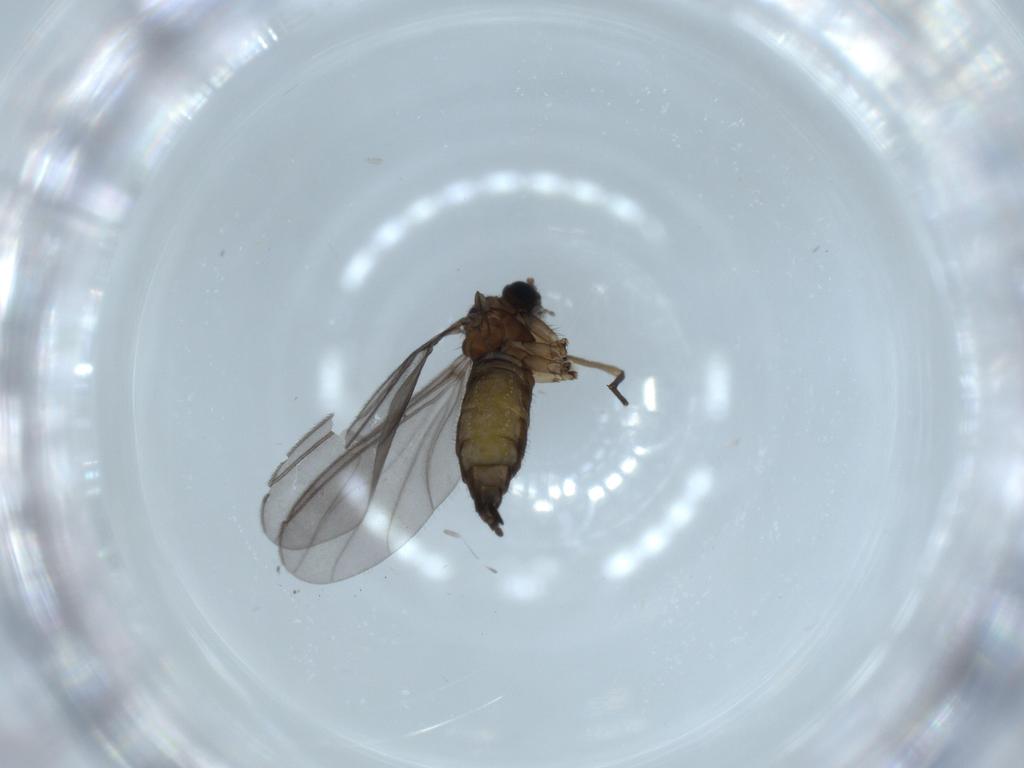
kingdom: Animalia
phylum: Arthropoda
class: Insecta
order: Diptera
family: Sciaridae
